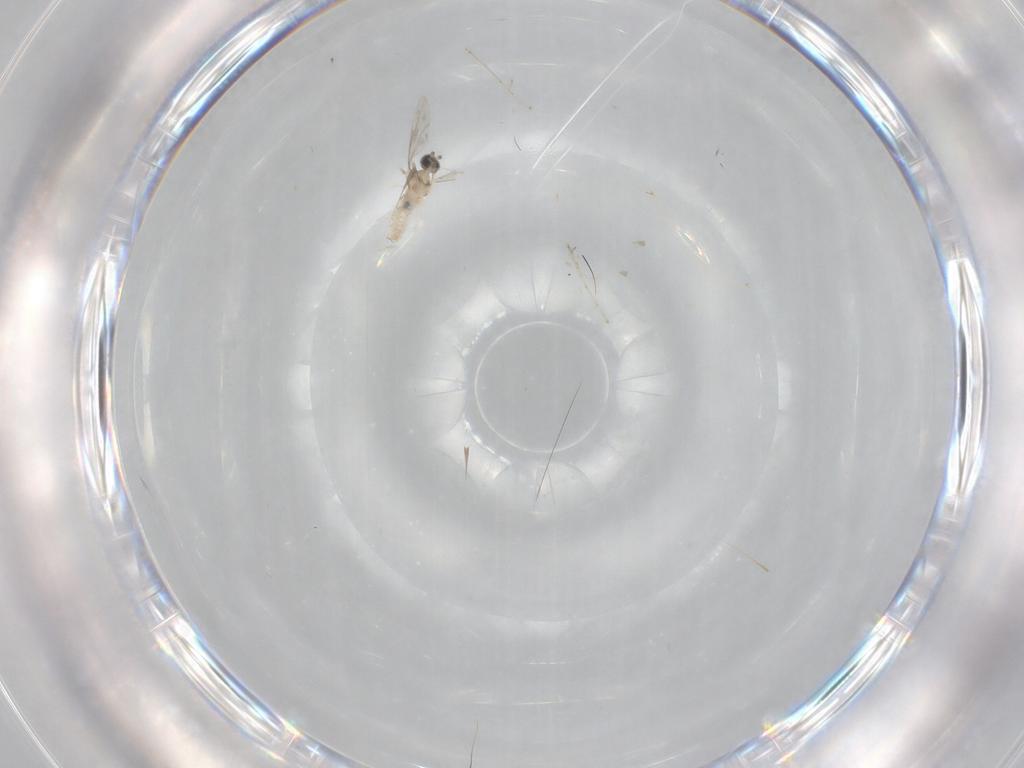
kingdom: Animalia
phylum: Arthropoda
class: Insecta
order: Diptera
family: Cecidomyiidae
